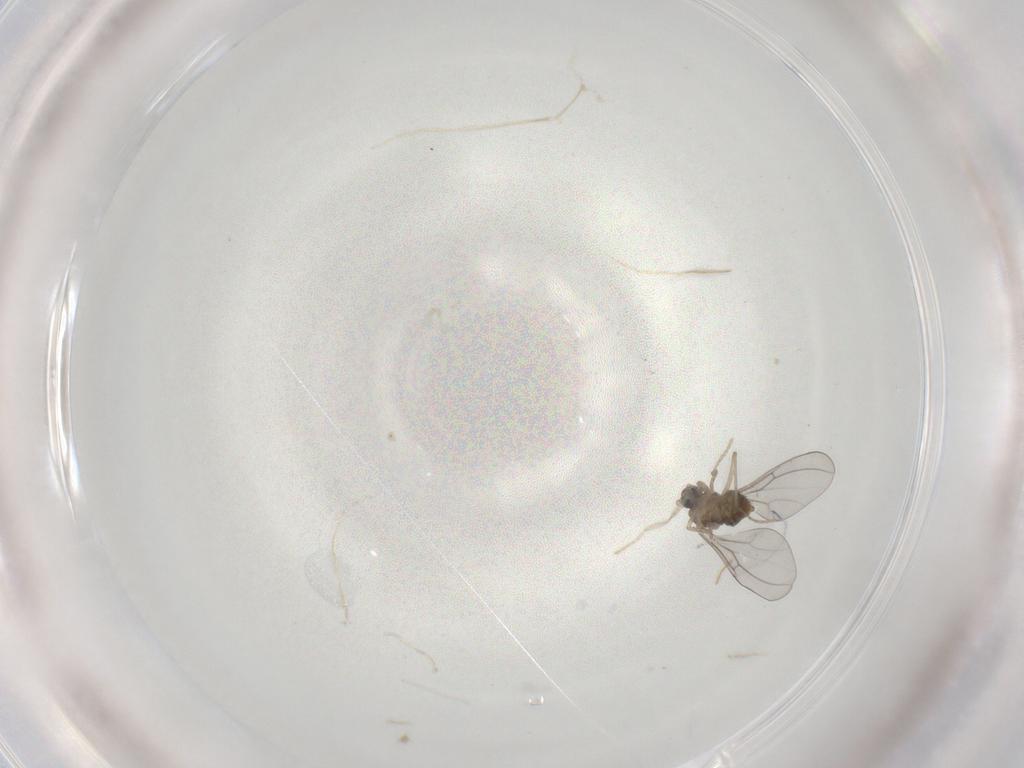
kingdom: Animalia
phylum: Arthropoda
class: Insecta
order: Diptera
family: Cecidomyiidae
